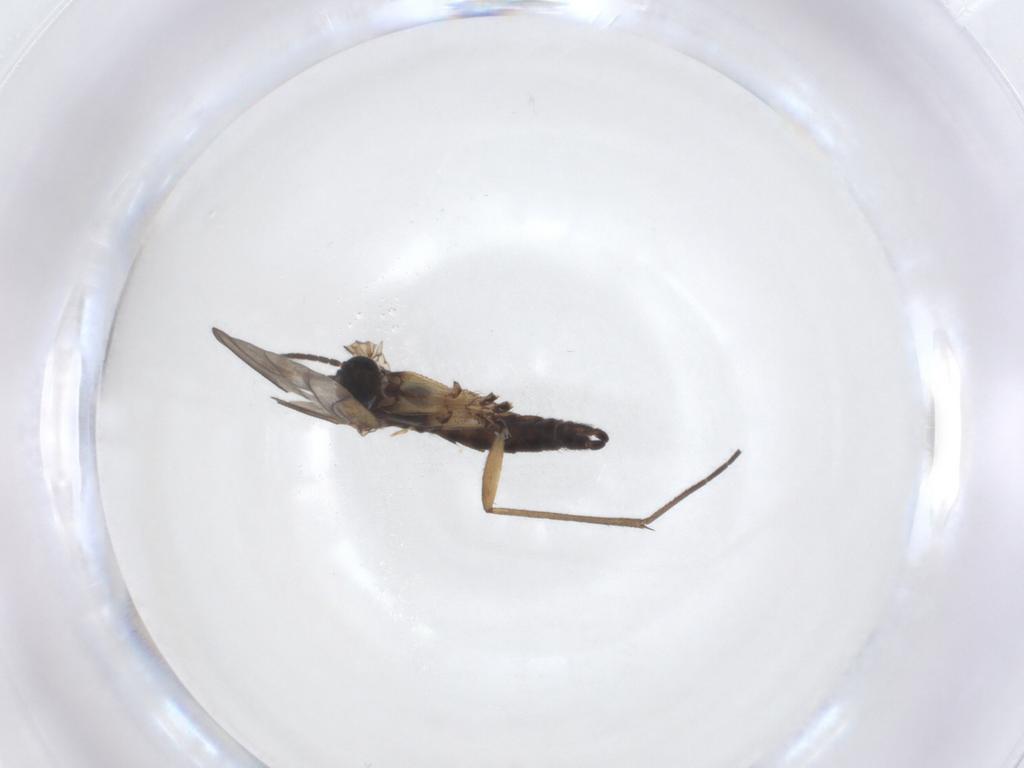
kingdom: Animalia
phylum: Arthropoda
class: Insecta
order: Diptera
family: Sciaridae
